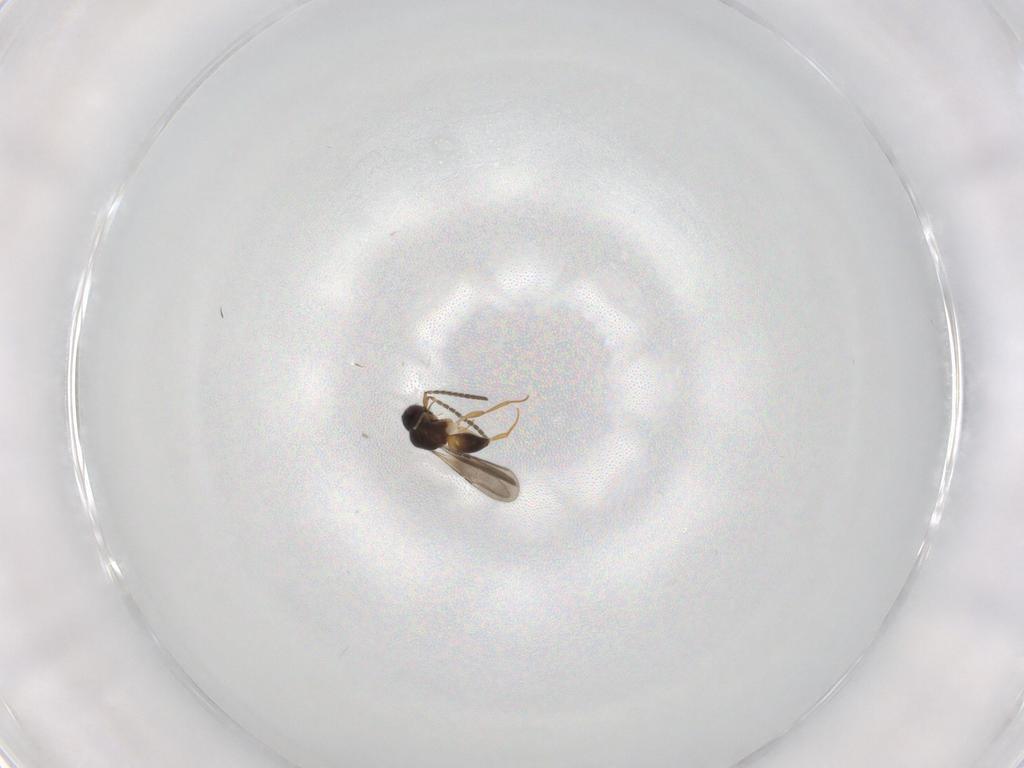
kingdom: Animalia
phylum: Arthropoda
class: Insecta
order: Hymenoptera
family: Ceraphronidae
